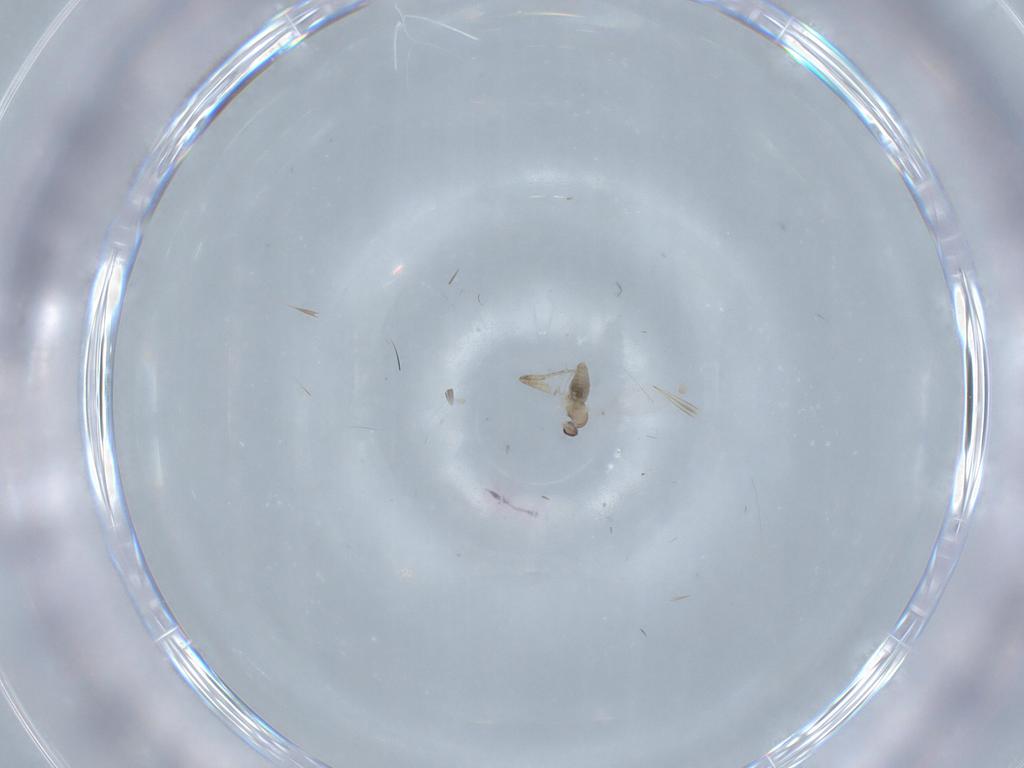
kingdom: Animalia
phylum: Arthropoda
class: Insecta
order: Diptera
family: Cecidomyiidae
